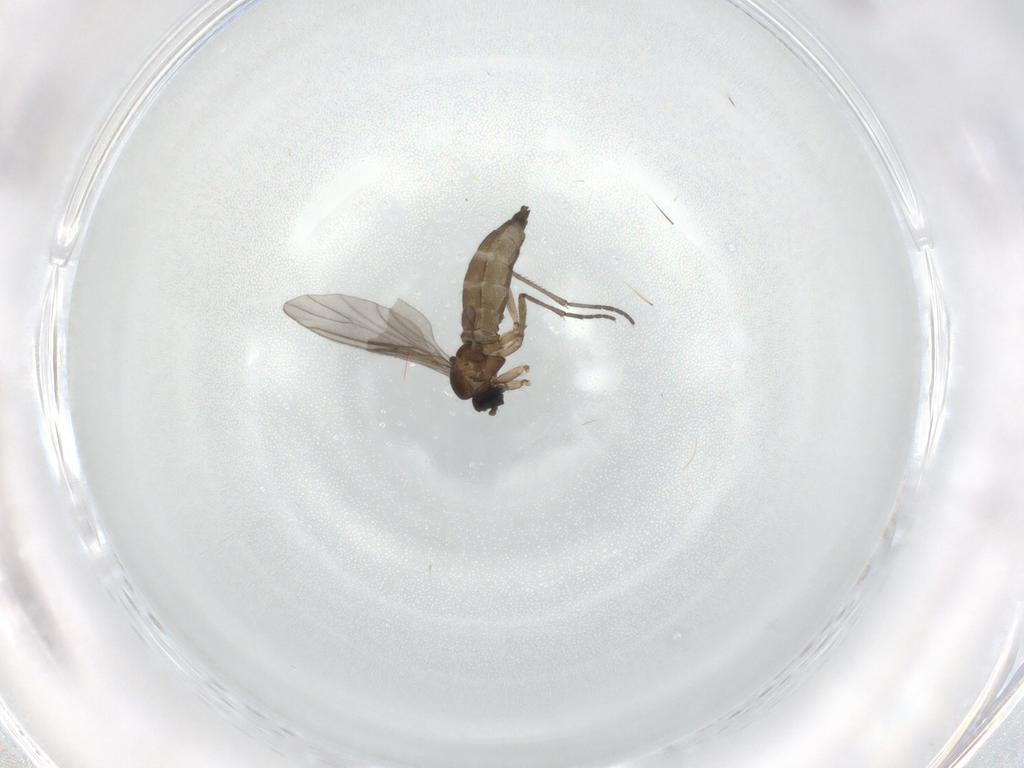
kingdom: Animalia
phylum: Arthropoda
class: Insecta
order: Diptera
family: Sciaridae
